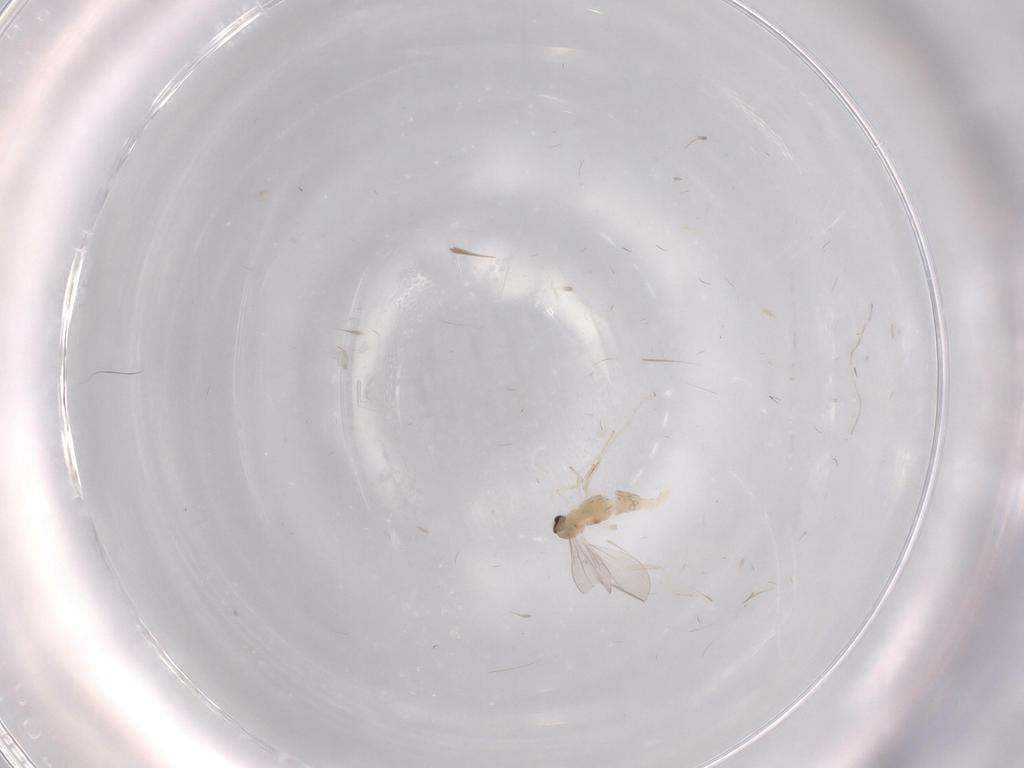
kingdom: Animalia
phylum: Arthropoda
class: Insecta
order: Diptera
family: Cecidomyiidae
